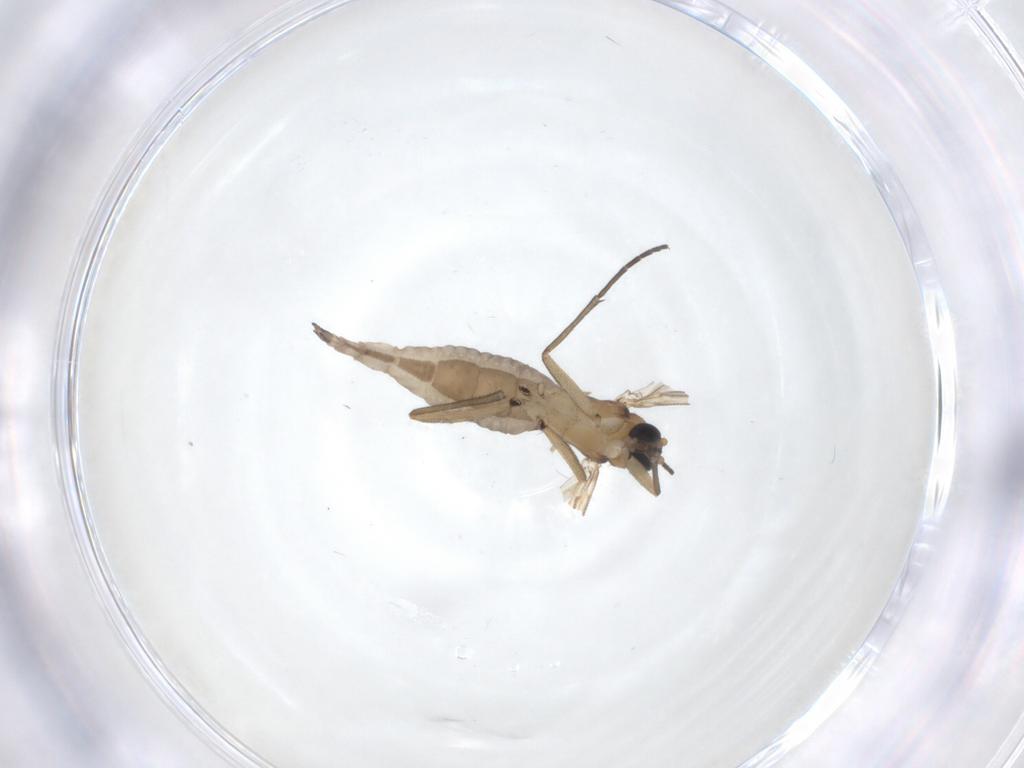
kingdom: Animalia
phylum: Arthropoda
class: Insecta
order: Diptera
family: Sciaridae
